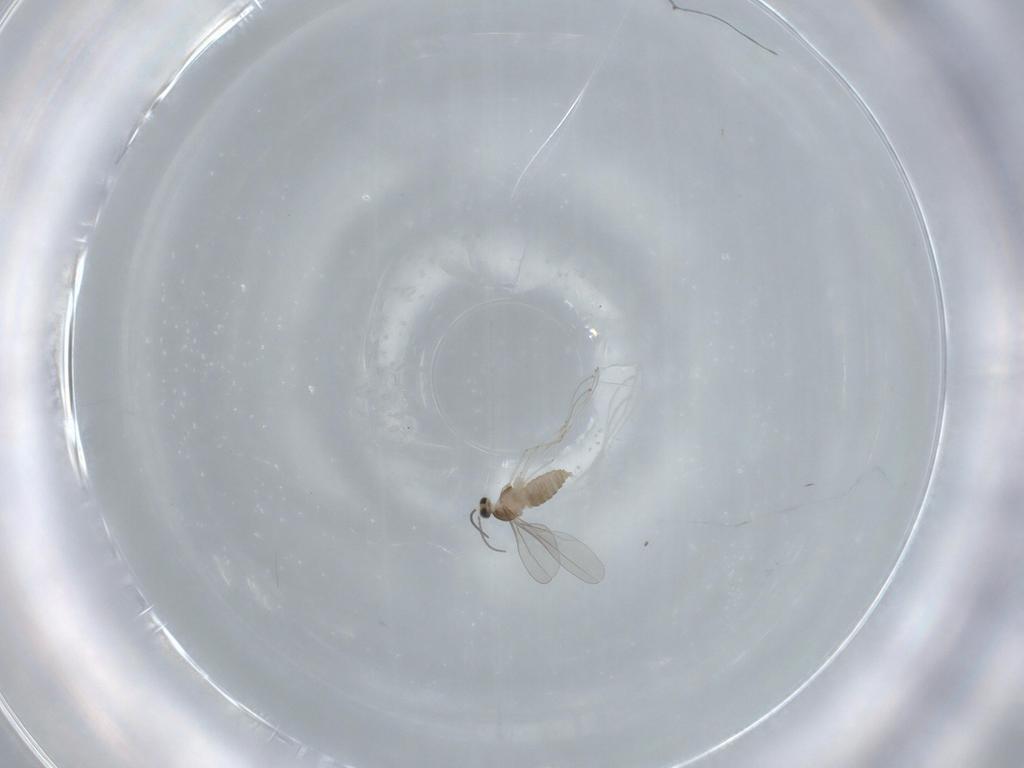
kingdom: Animalia
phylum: Arthropoda
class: Insecta
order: Diptera
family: Cecidomyiidae
